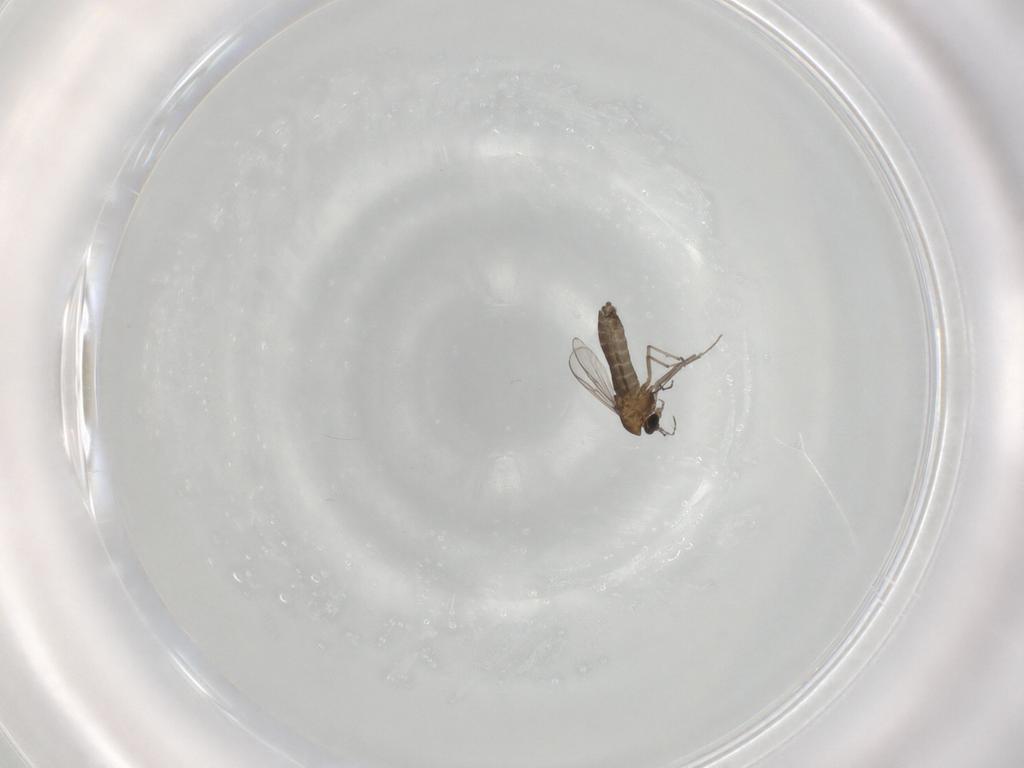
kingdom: Animalia
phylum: Arthropoda
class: Insecta
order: Diptera
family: Chironomidae
